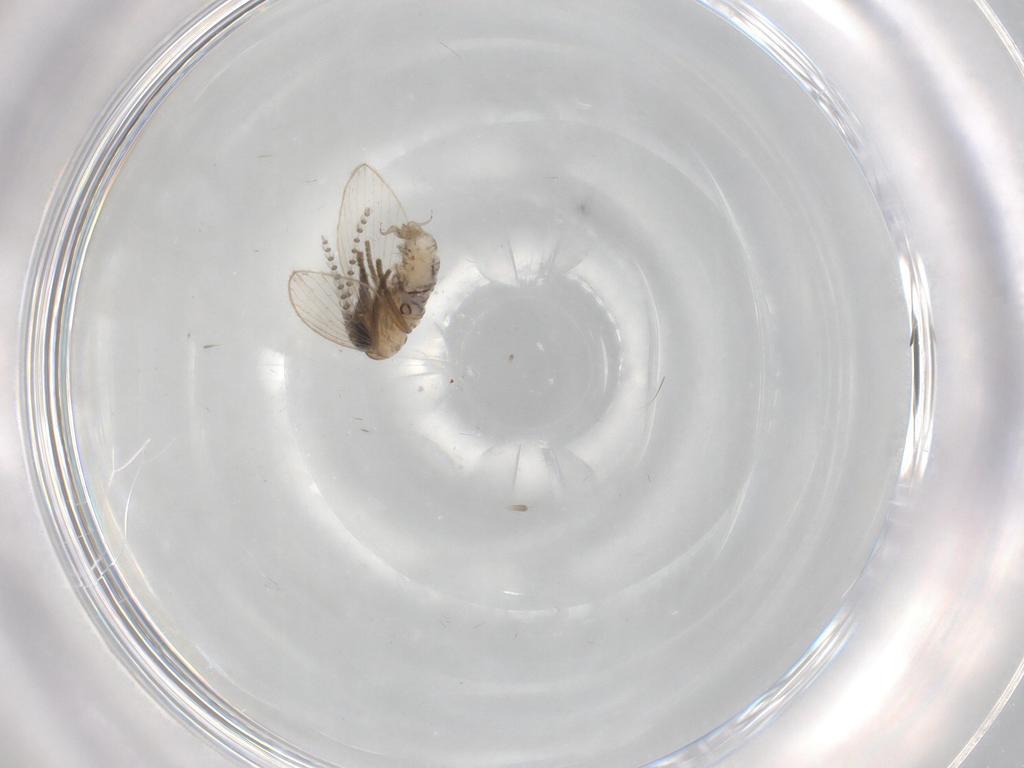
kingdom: Animalia
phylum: Arthropoda
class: Insecta
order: Diptera
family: Psychodidae
